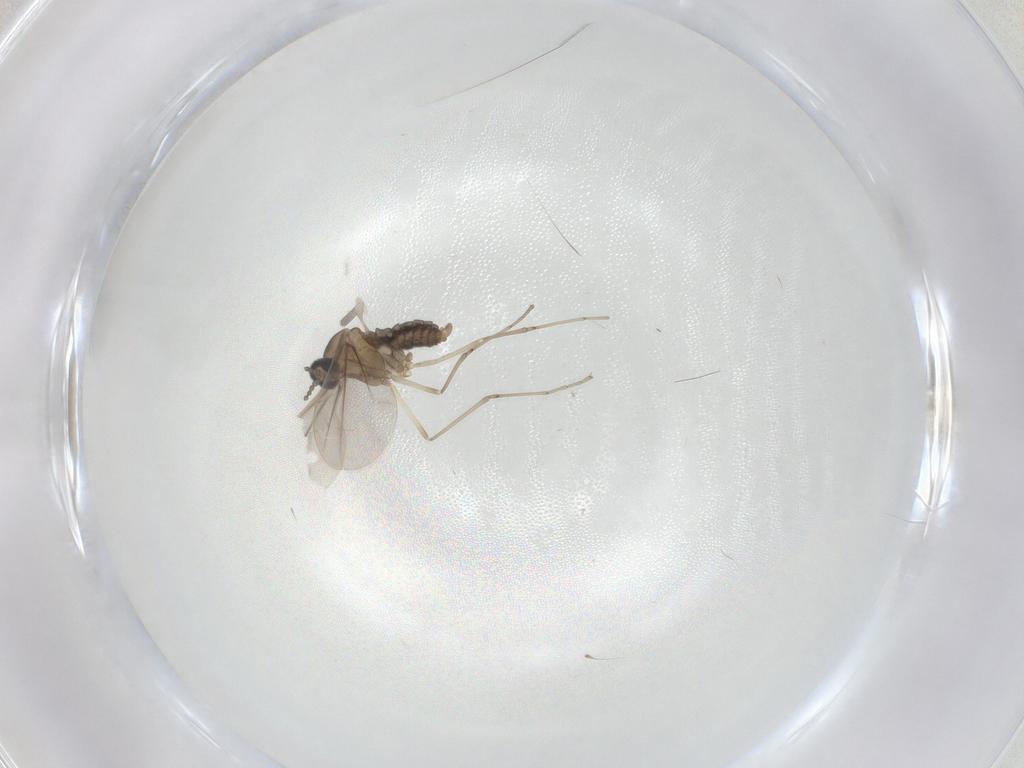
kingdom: Animalia
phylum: Arthropoda
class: Insecta
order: Diptera
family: Cecidomyiidae
